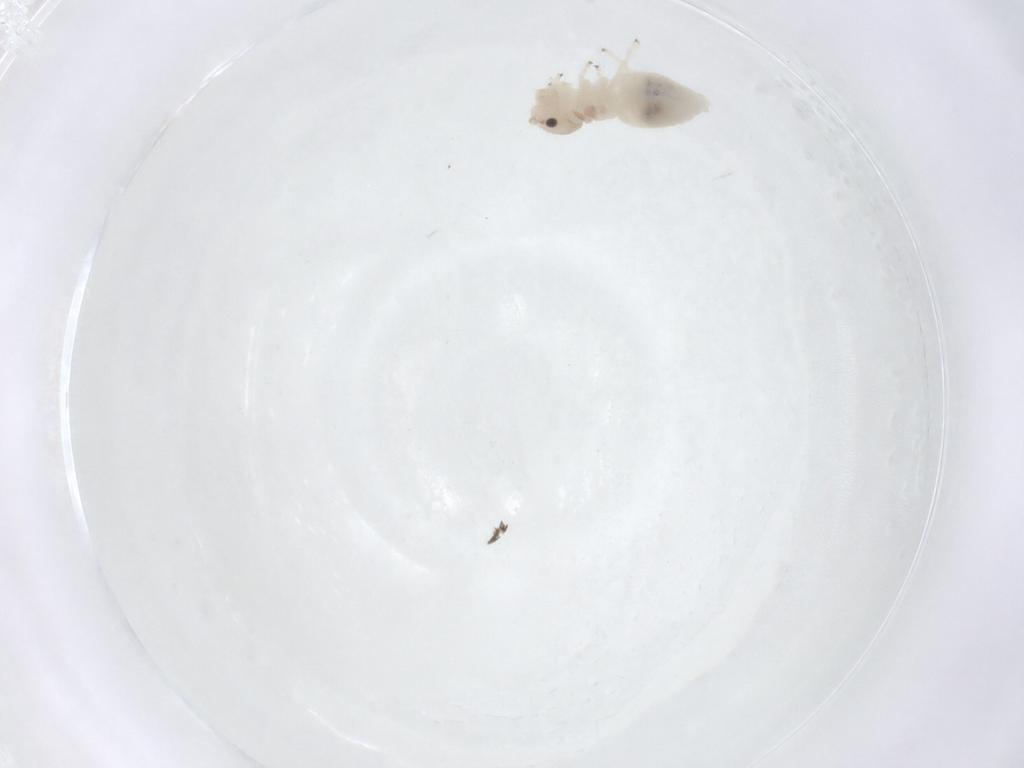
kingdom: Animalia
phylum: Arthropoda
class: Insecta
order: Psocodea
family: Amphipsocidae
